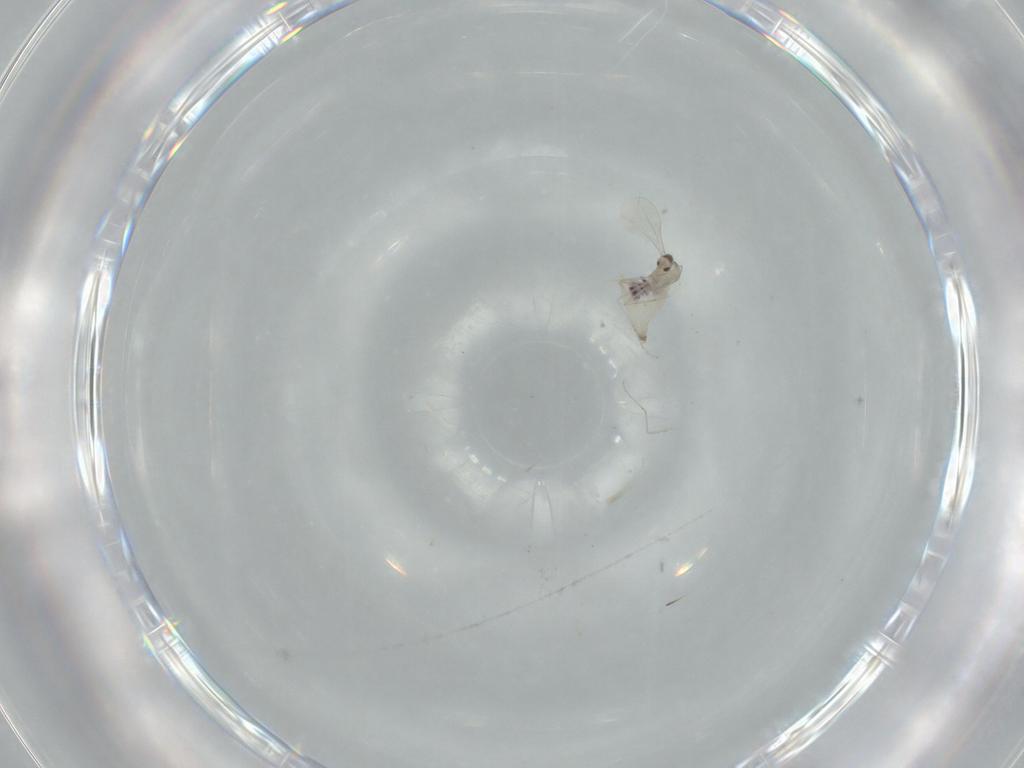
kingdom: Animalia
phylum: Arthropoda
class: Insecta
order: Diptera
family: Cecidomyiidae
